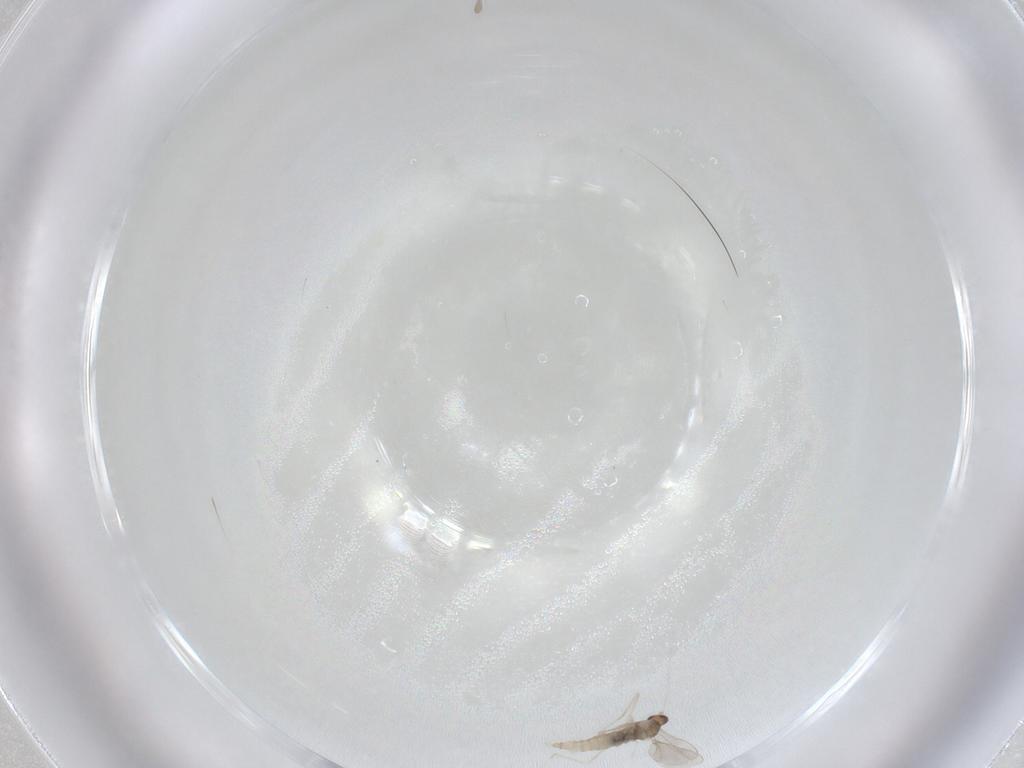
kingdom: Animalia
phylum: Arthropoda
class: Insecta
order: Diptera
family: Cecidomyiidae
